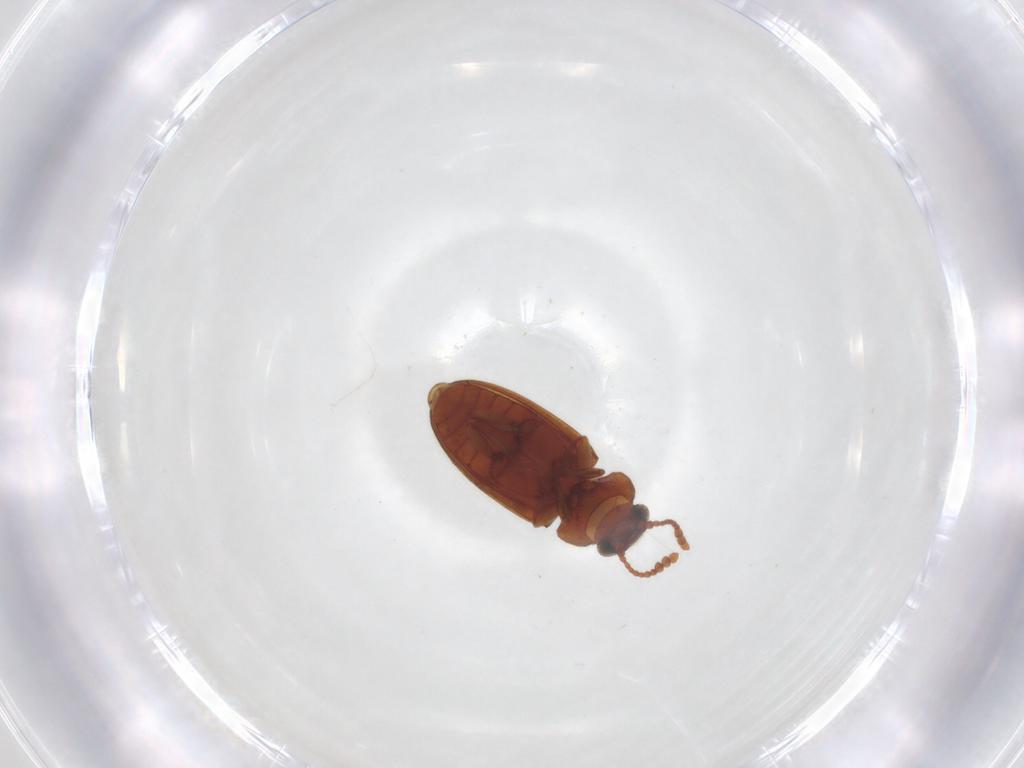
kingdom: Animalia
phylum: Arthropoda
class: Insecta
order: Coleoptera
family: Erotylidae
